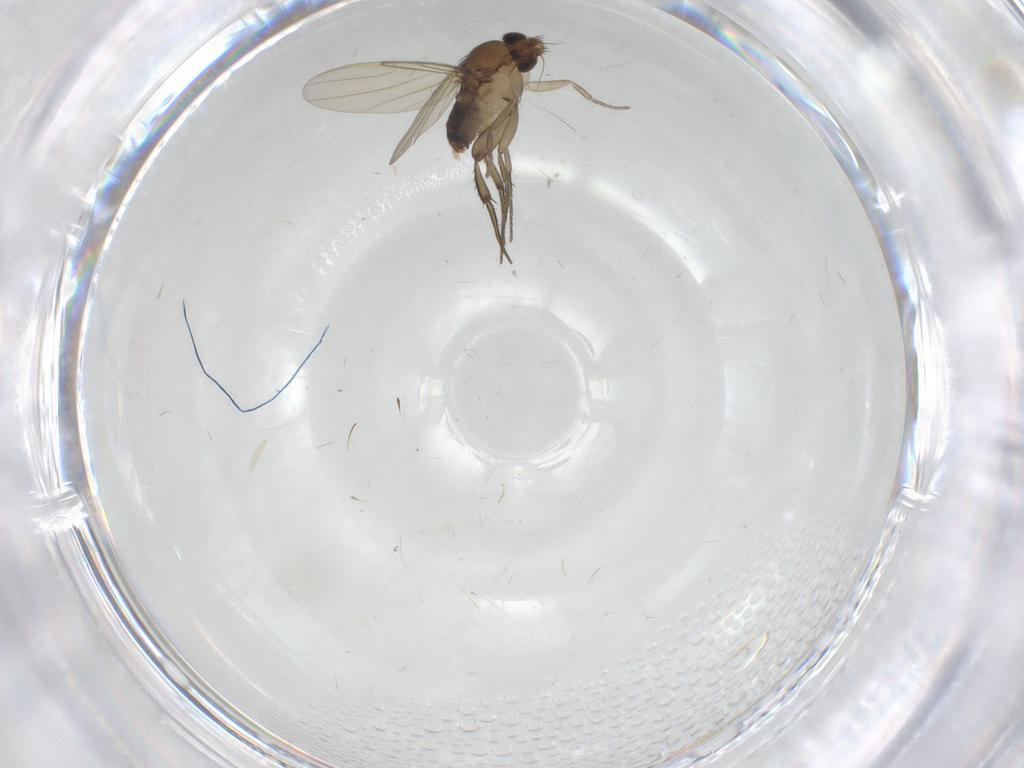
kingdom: Animalia
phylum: Arthropoda
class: Insecta
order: Diptera
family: Phoridae
